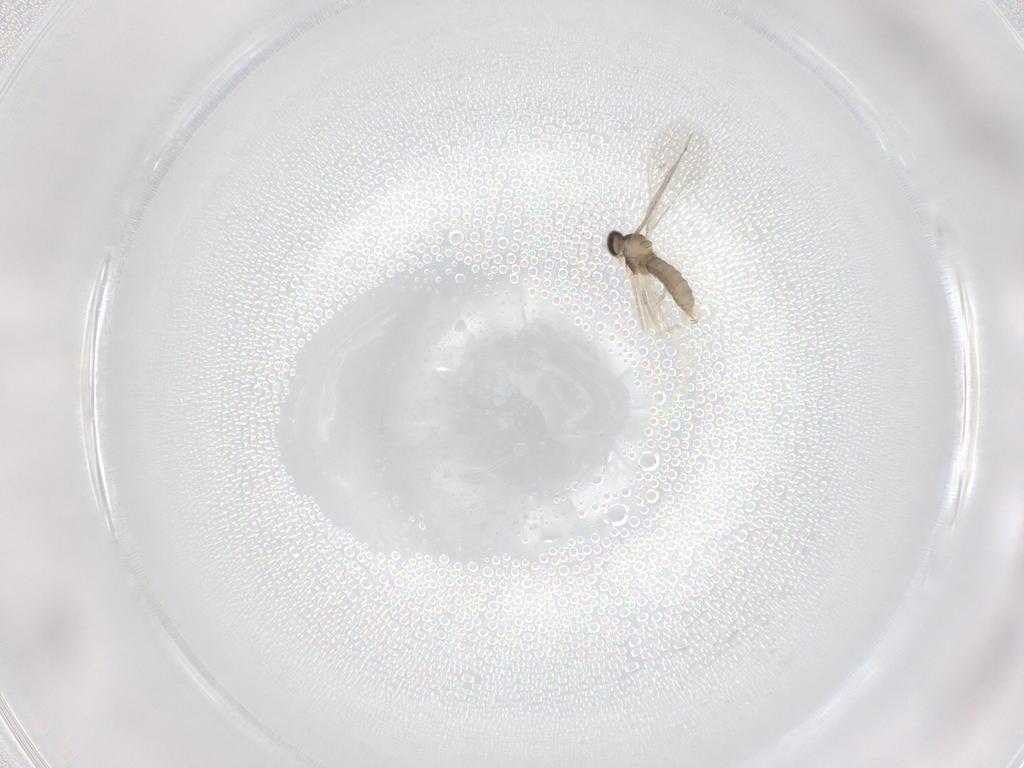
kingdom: Animalia
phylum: Arthropoda
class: Insecta
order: Diptera
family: Cecidomyiidae
